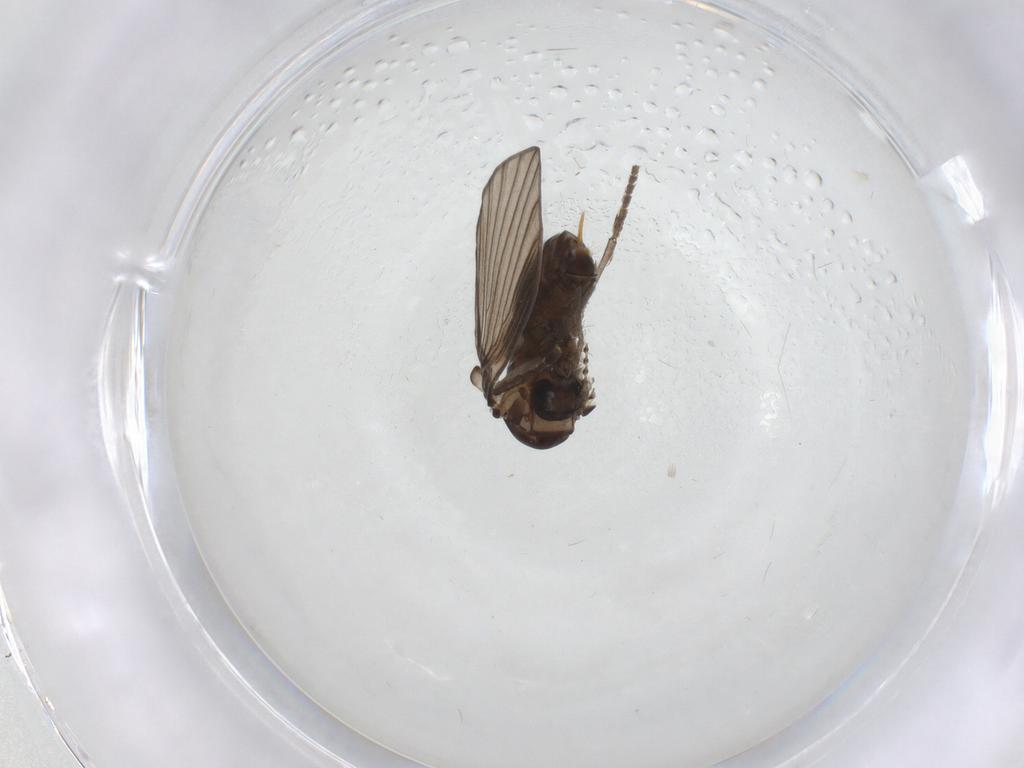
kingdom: Animalia
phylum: Arthropoda
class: Insecta
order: Diptera
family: Psychodidae
